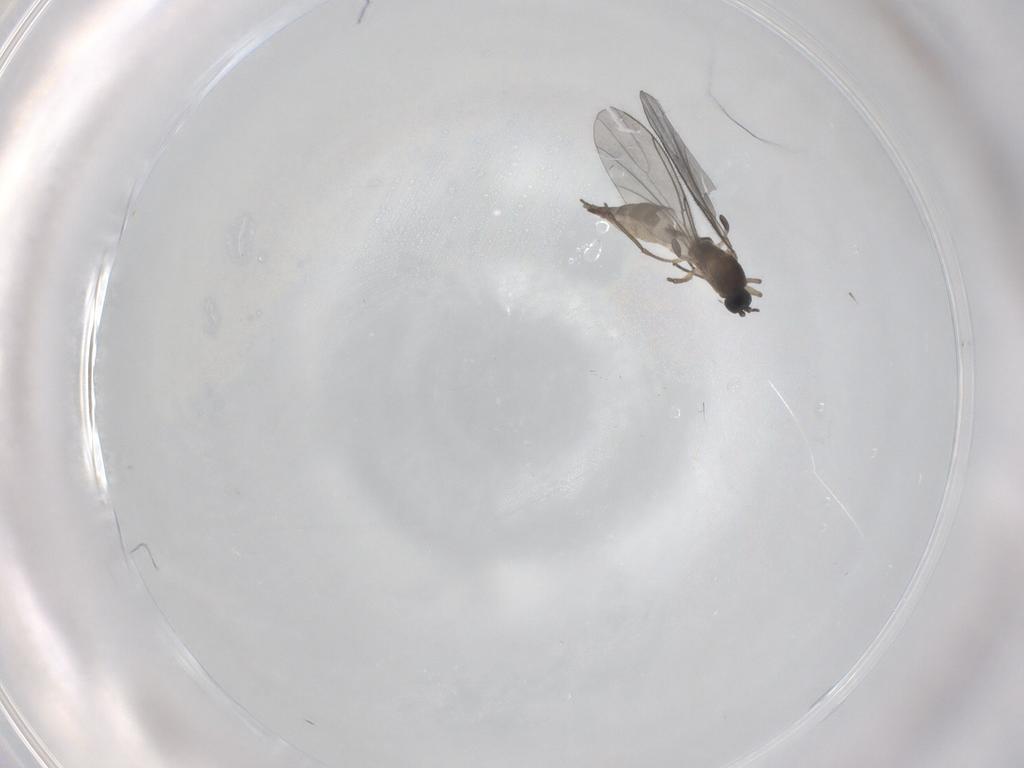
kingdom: Animalia
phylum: Arthropoda
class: Insecta
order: Diptera
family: Sciaridae
